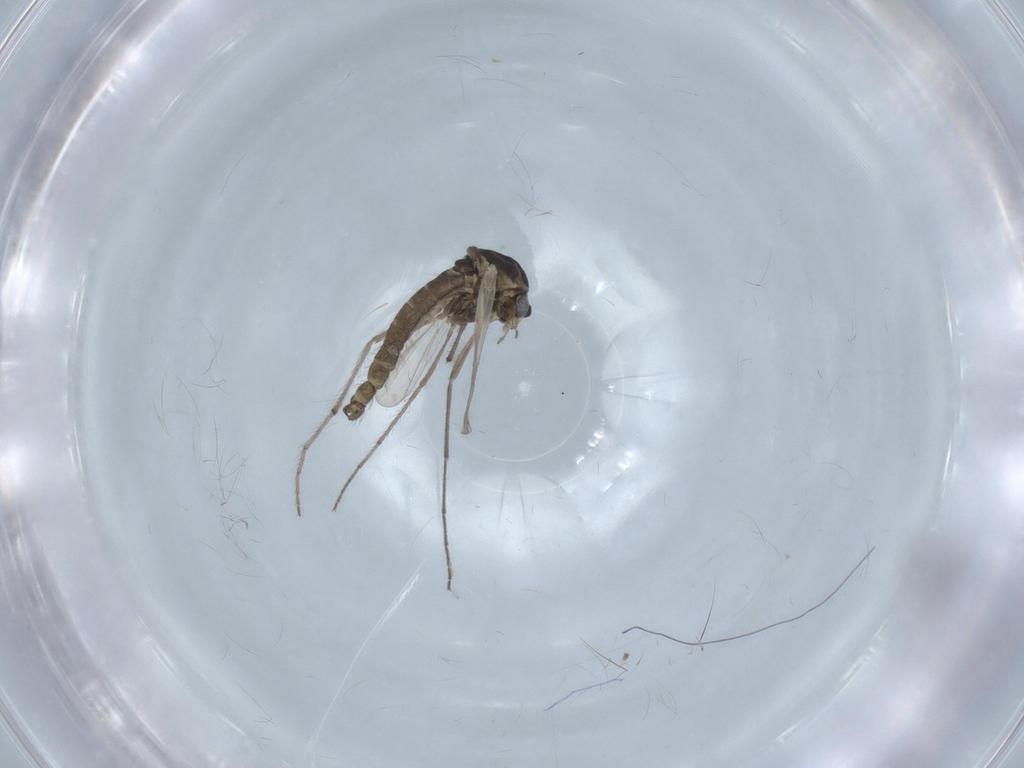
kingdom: Animalia
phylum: Arthropoda
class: Insecta
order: Diptera
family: Chironomidae
